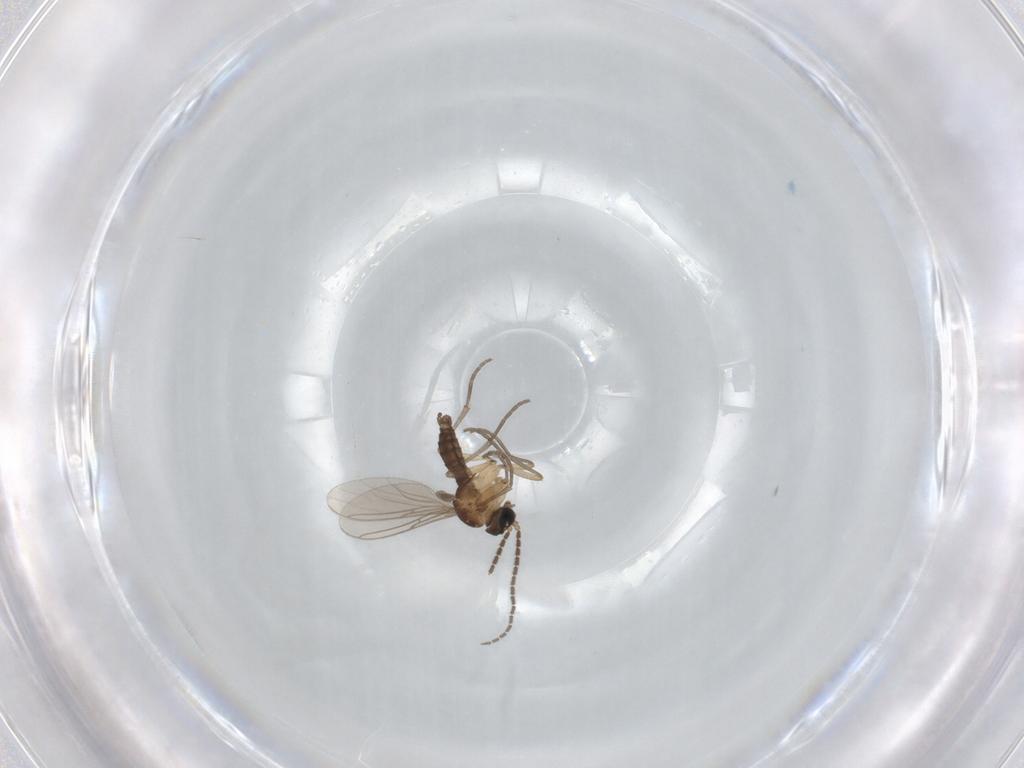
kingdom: Animalia
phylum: Arthropoda
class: Insecta
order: Diptera
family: Sciaridae
